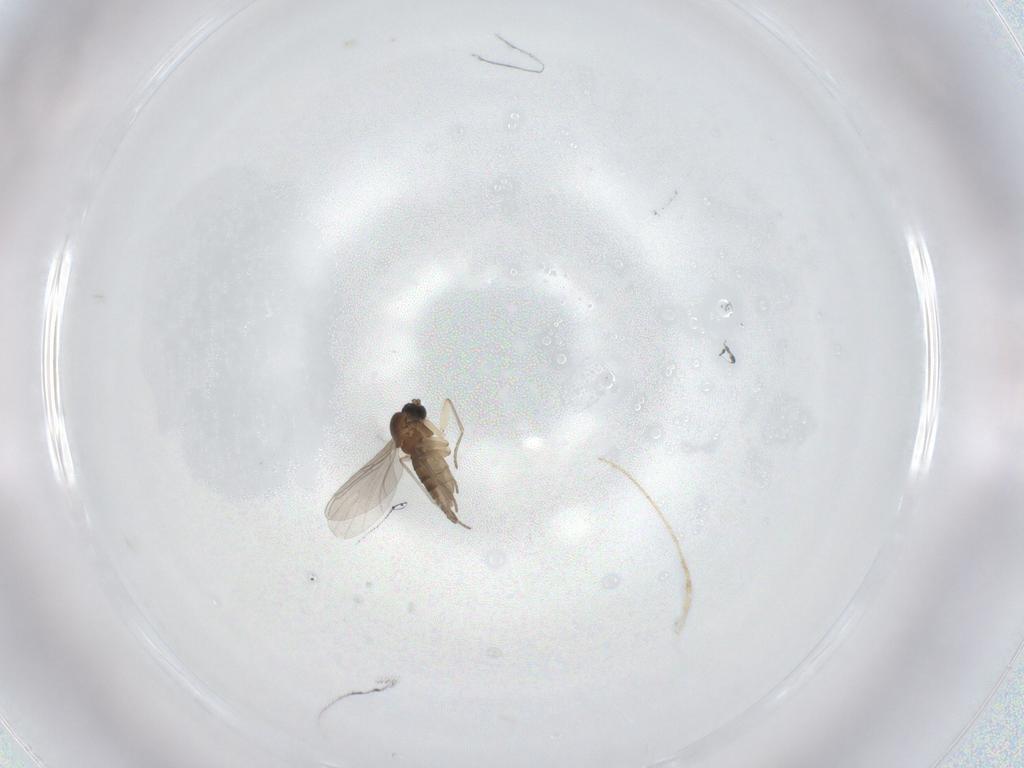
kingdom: Animalia
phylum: Arthropoda
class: Insecta
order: Diptera
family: Sciaridae
